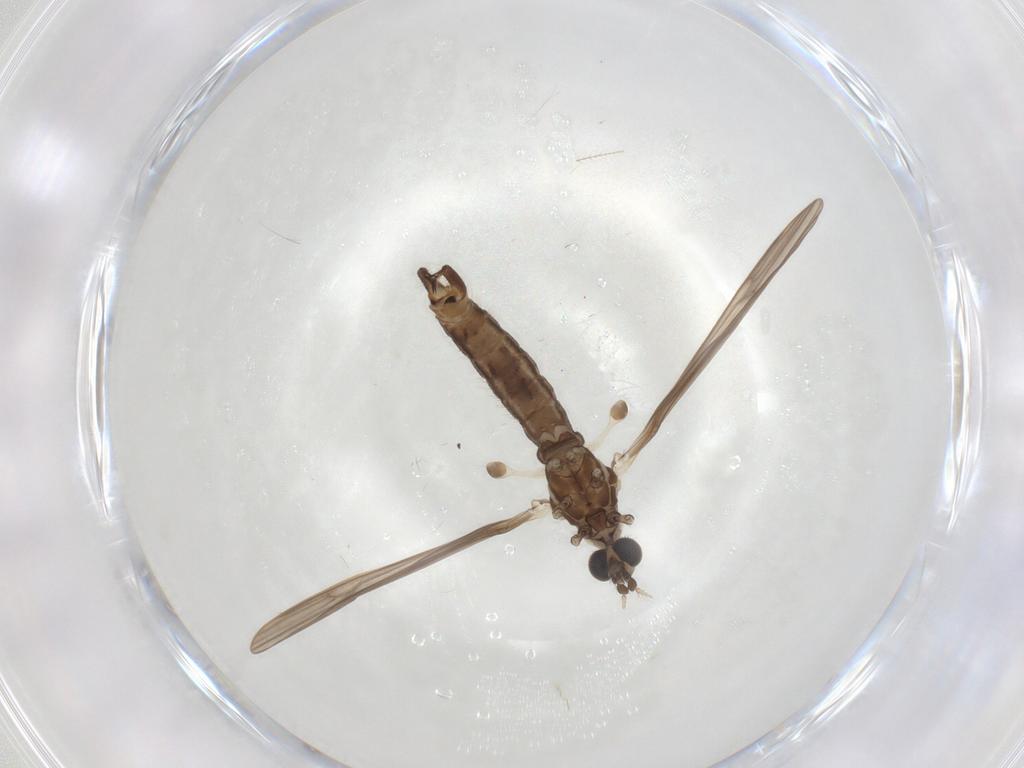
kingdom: Animalia
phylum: Arthropoda
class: Insecta
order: Diptera
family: Limoniidae
